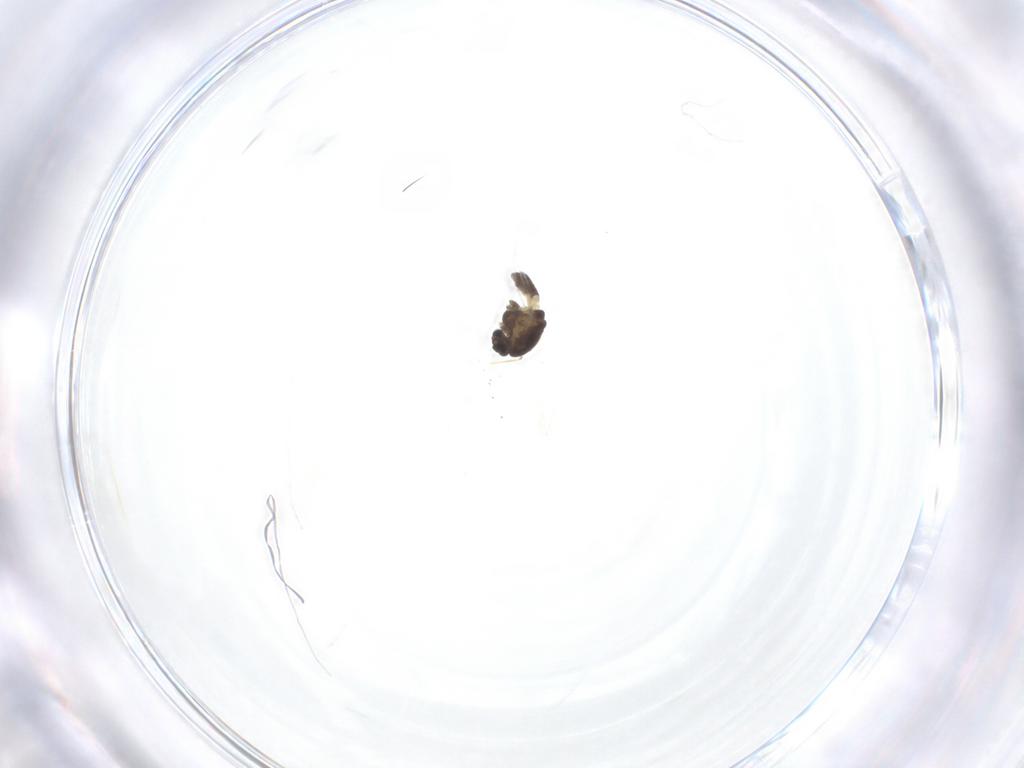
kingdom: Animalia
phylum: Arthropoda
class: Insecta
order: Diptera
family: Chironomidae
